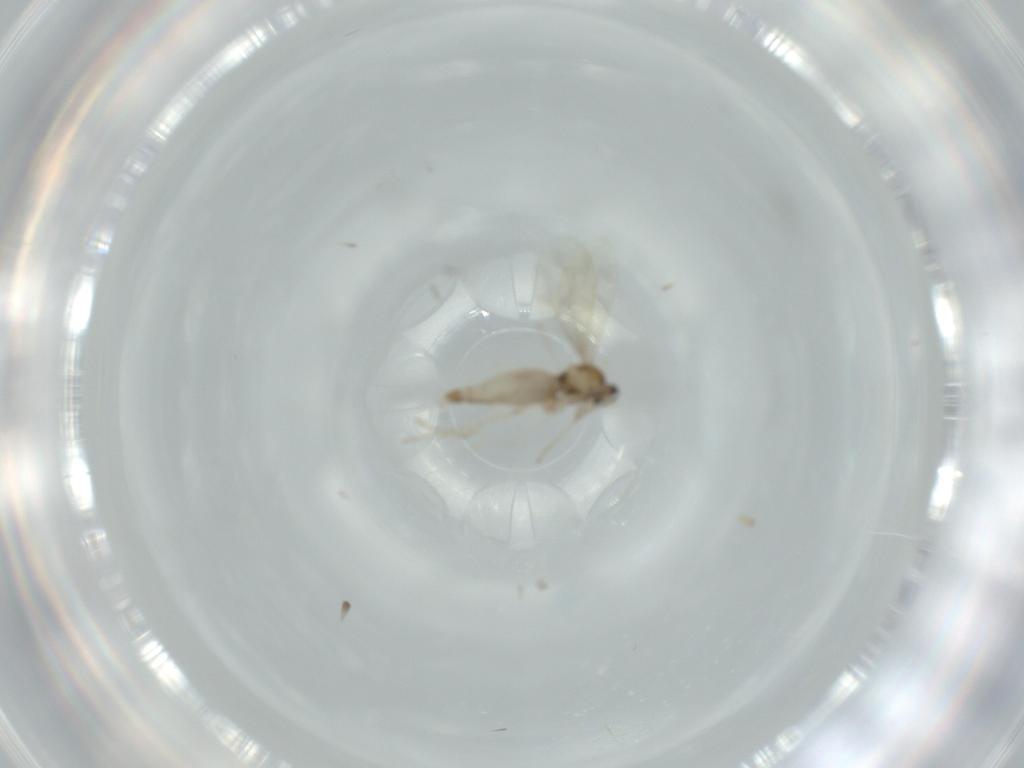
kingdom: Animalia
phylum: Arthropoda
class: Insecta
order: Diptera
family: Cecidomyiidae
